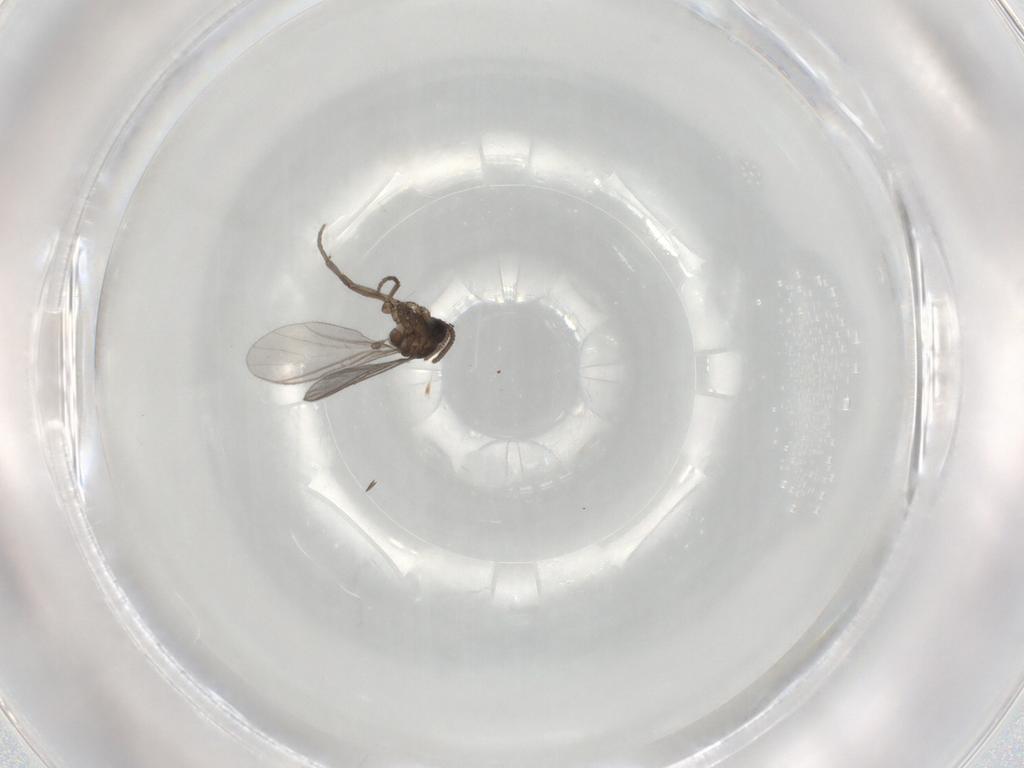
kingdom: Animalia
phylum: Arthropoda
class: Insecta
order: Diptera
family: Sciaridae
